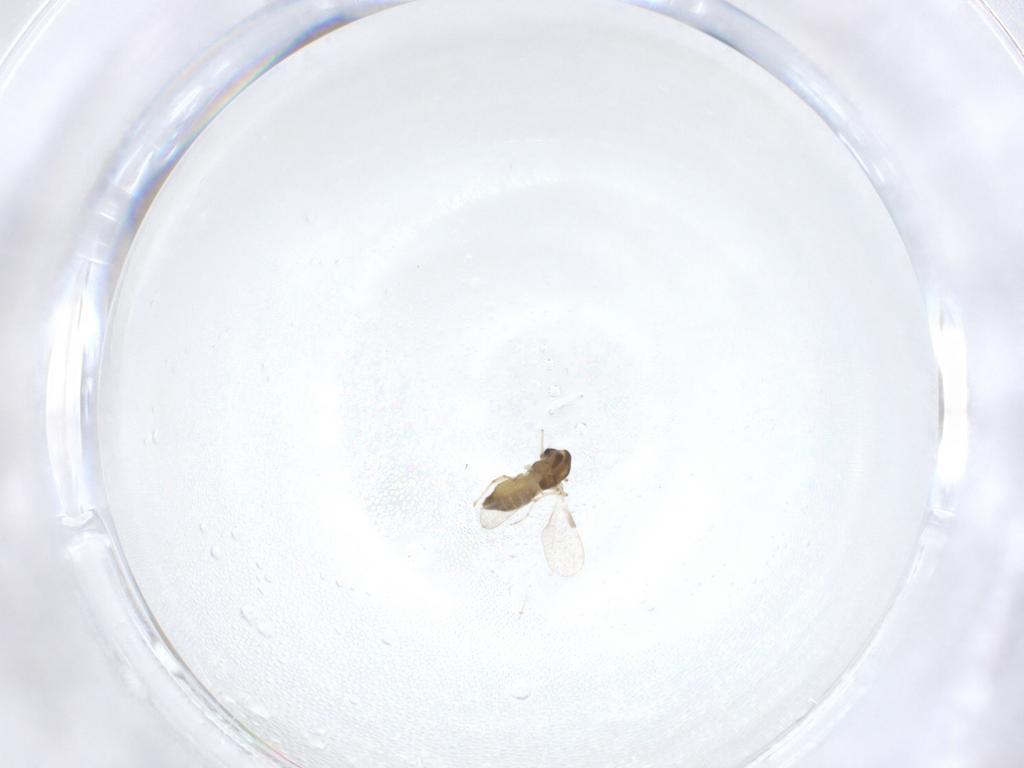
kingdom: Animalia
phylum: Arthropoda
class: Insecta
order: Diptera
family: Chironomidae
